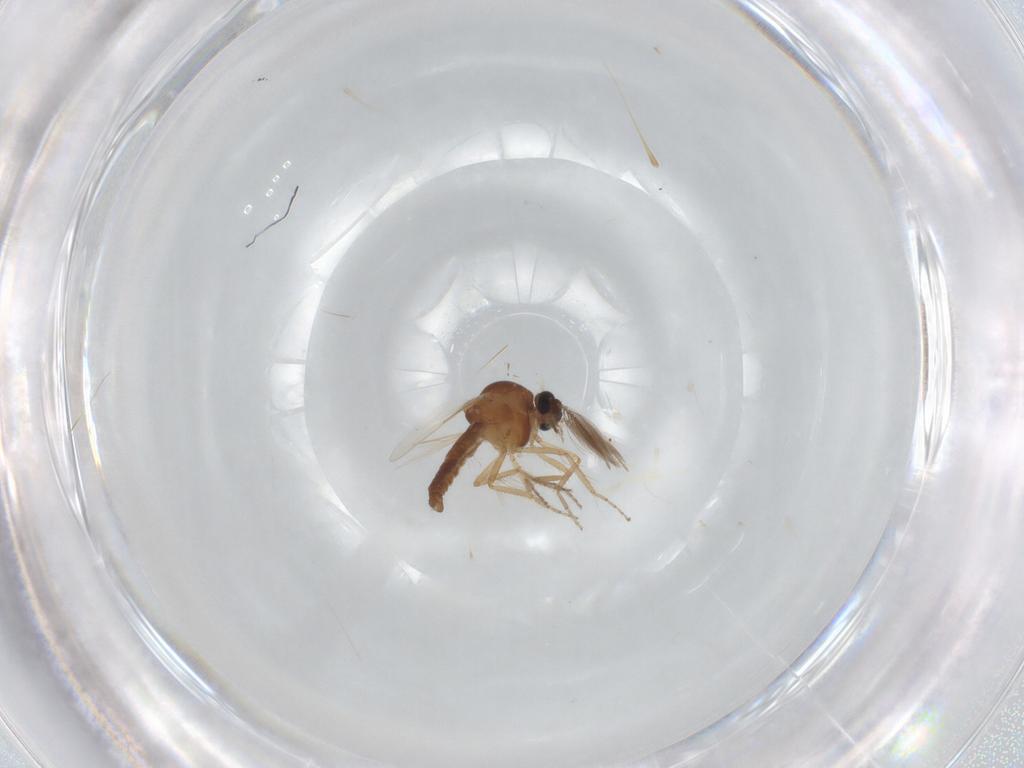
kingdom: Animalia
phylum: Arthropoda
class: Insecta
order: Diptera
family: Ceratopogonidae
